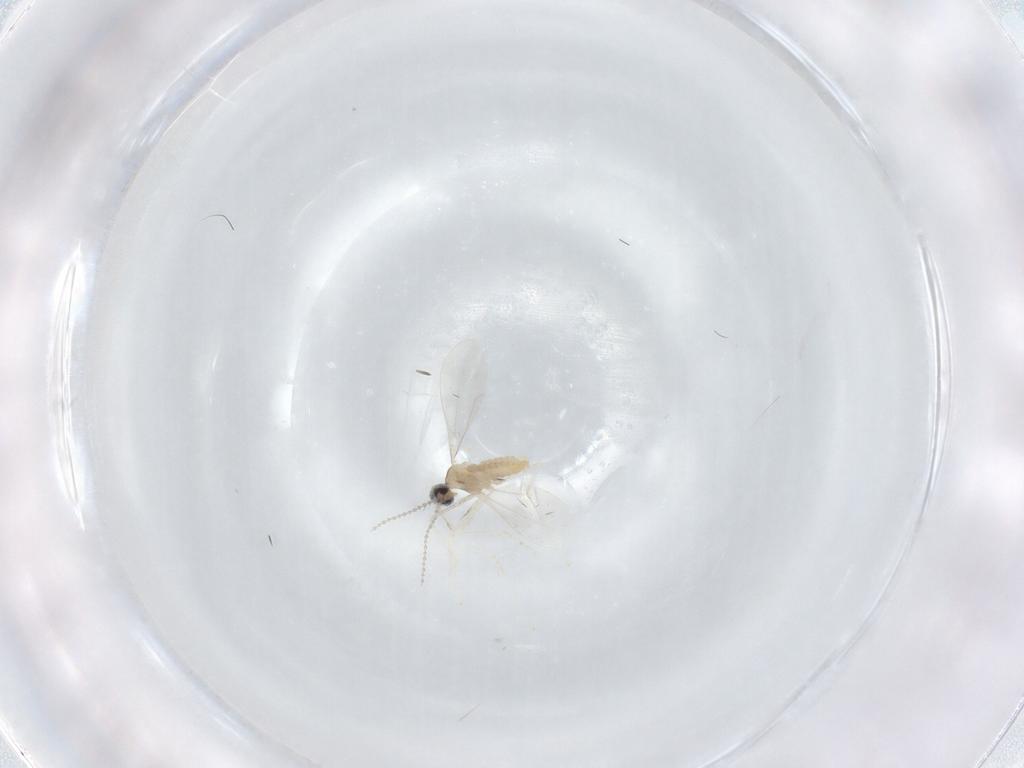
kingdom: Animalia
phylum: Arthropoda
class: Insecta
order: Diptera
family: Cecidomyiidae
